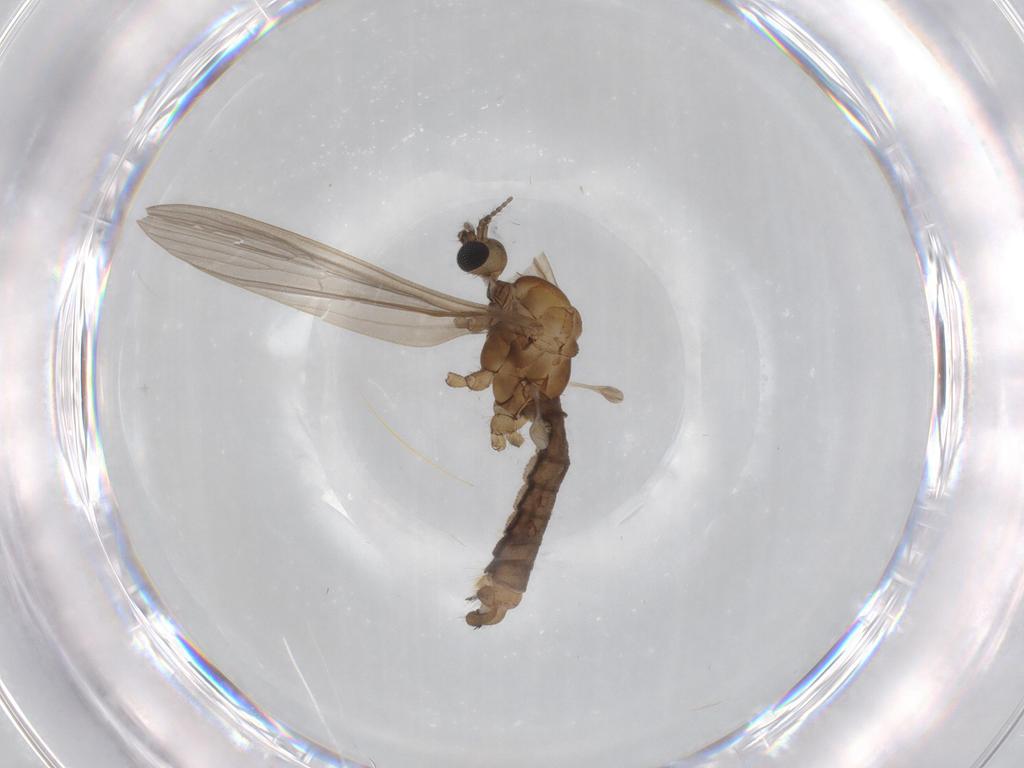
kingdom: Animalia
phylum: Arthropoda
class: Insecta
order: Diptera
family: Limoniidae
